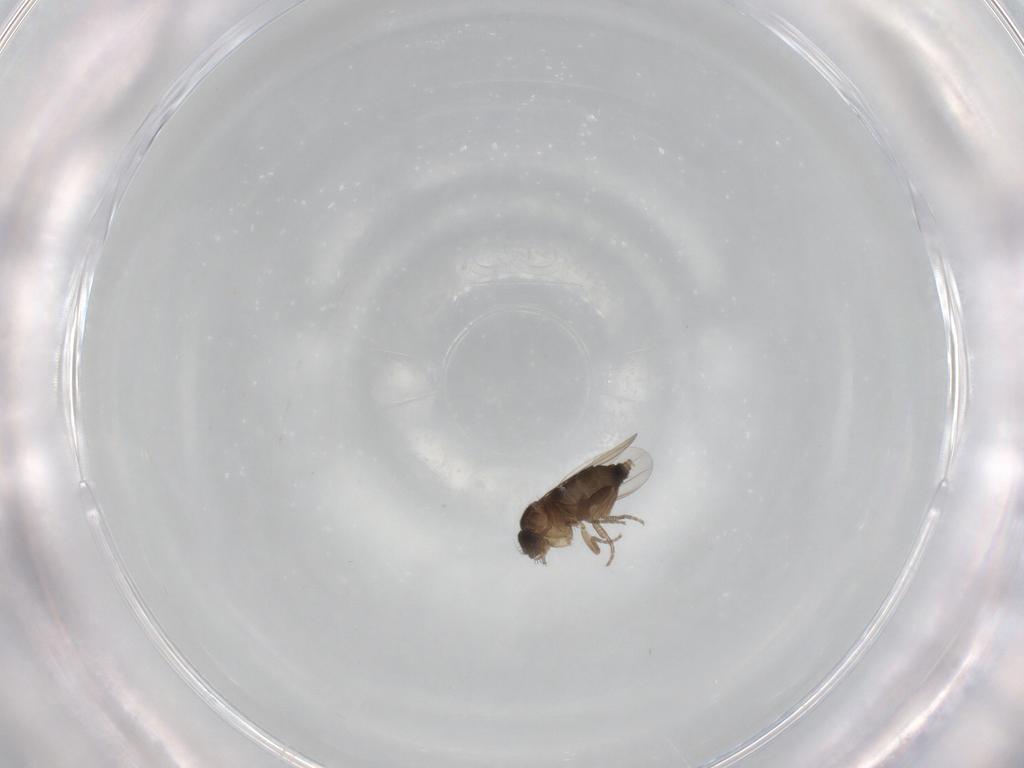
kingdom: Animalia
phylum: Arthropoda
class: Insecta
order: Diptera
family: Phoridae
